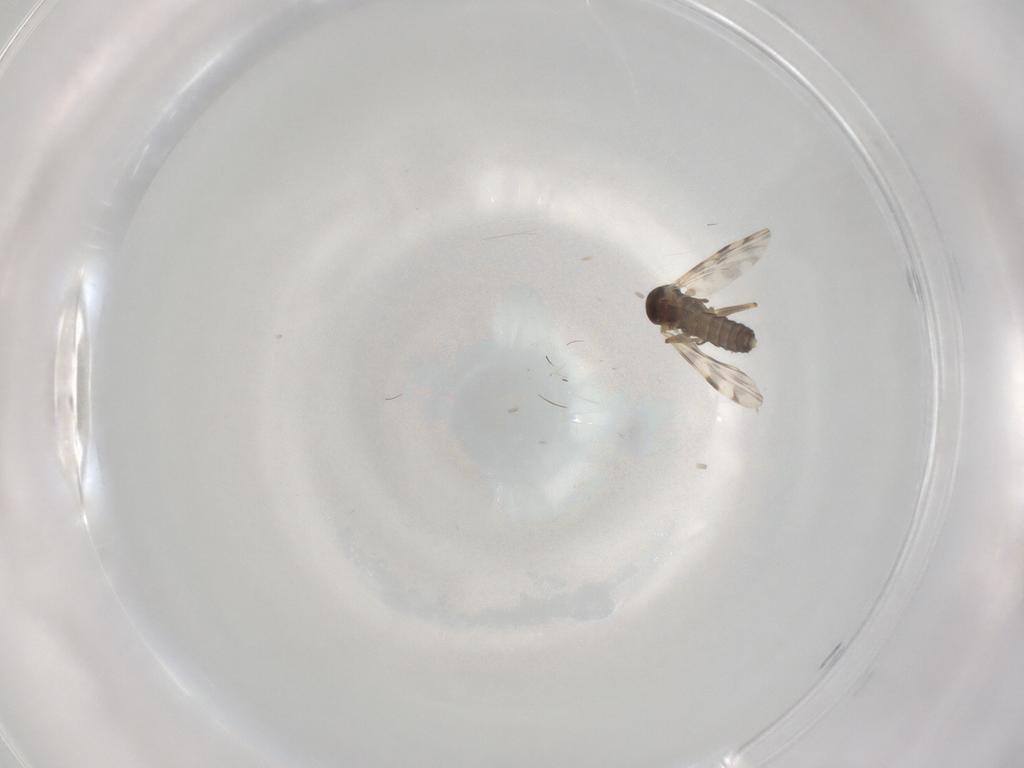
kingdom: Animalia
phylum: Arthropoda
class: Insecta
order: Diptera
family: Ceratopogonidae
